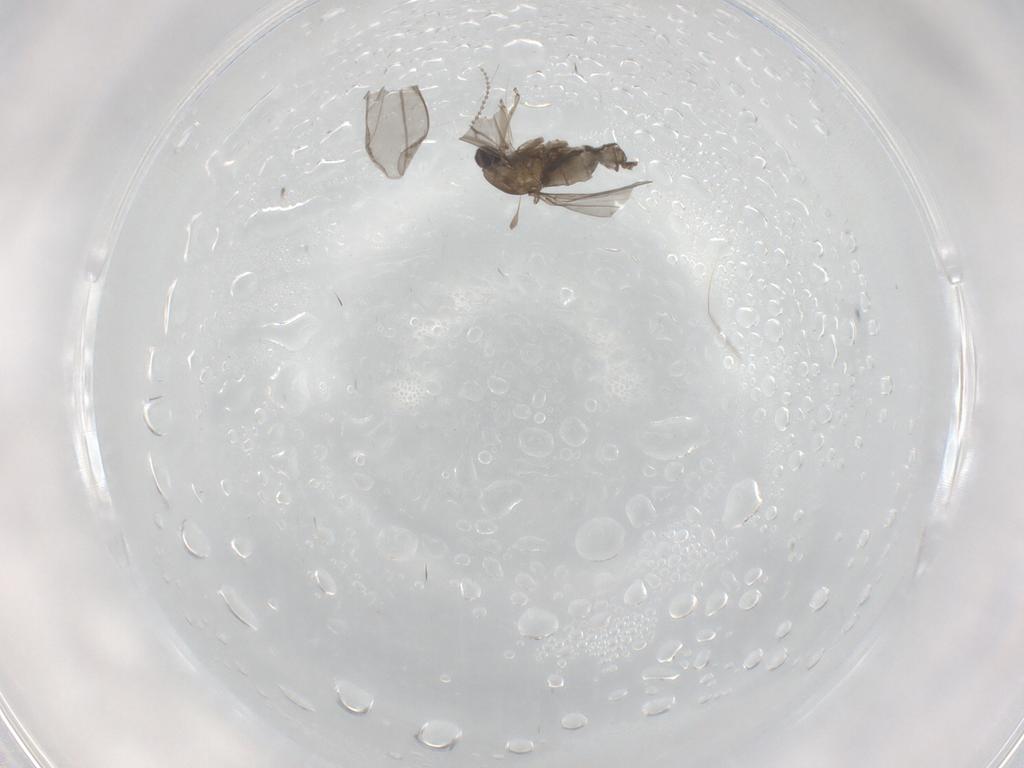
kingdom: Animalia
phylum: Arthropoda
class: Insecta
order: Diptera
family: Cecidomyiidae
